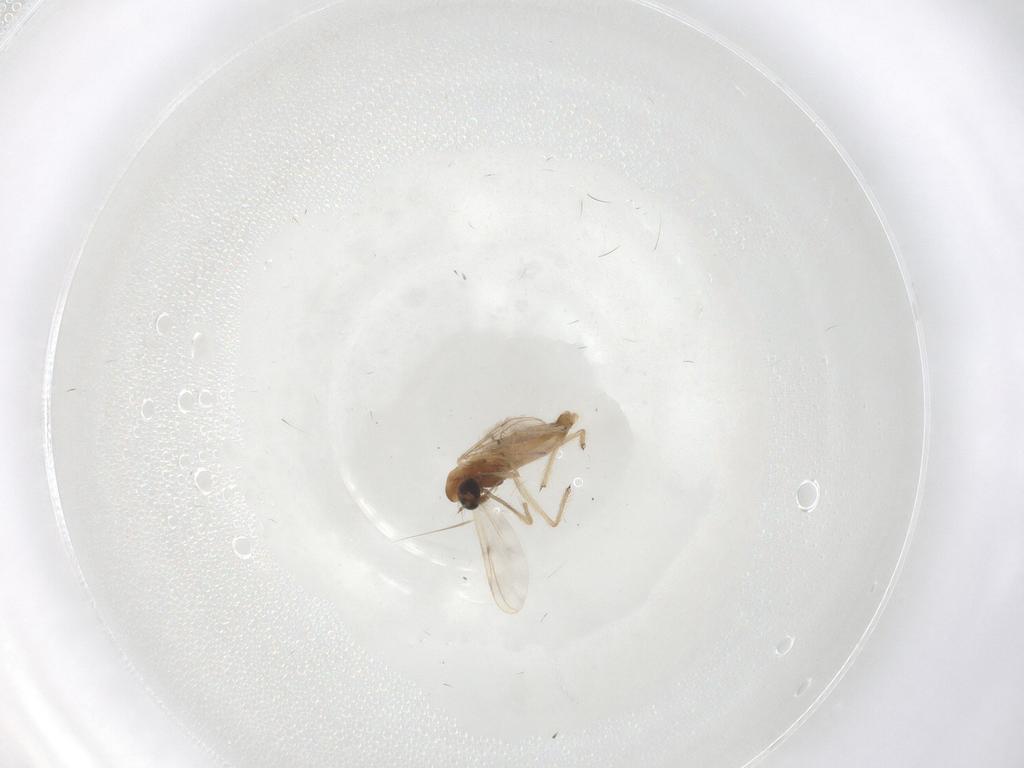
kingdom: Animalia
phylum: Arthropoda
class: Insecta
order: Diptera
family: Chironomidae
